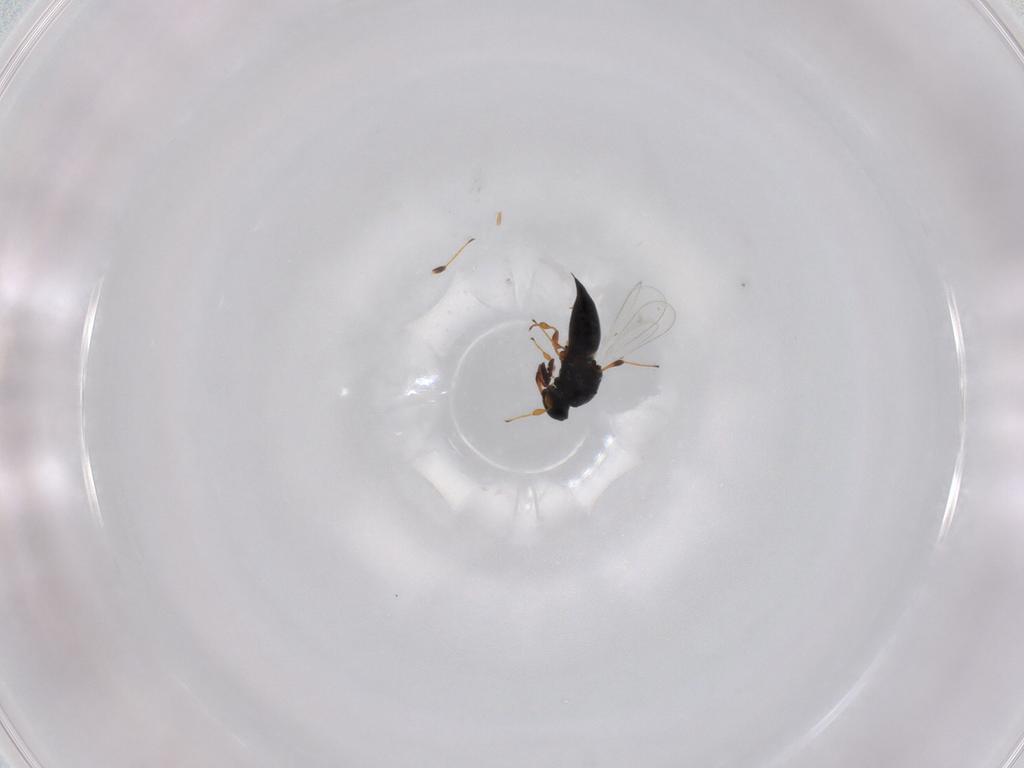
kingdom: Animalia
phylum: Arthropoda
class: Insecta
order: Hymenoptera
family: Platygastridae
